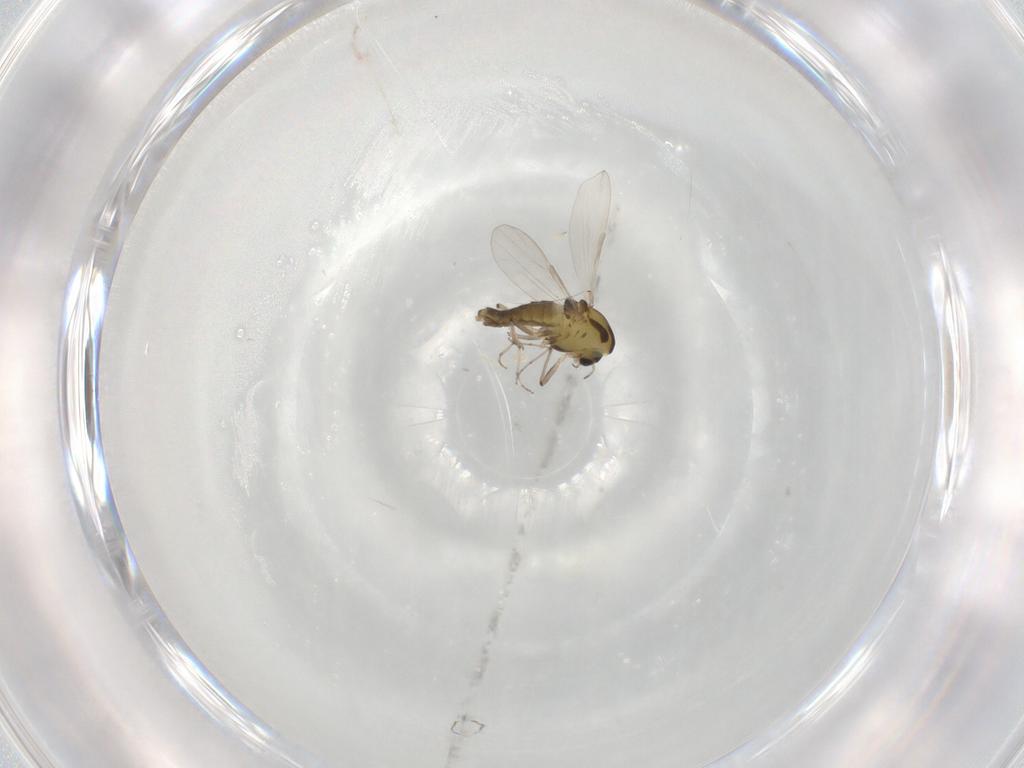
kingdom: Animalia
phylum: Arthropoda
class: Insecta
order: Diptera
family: Chironomidae
